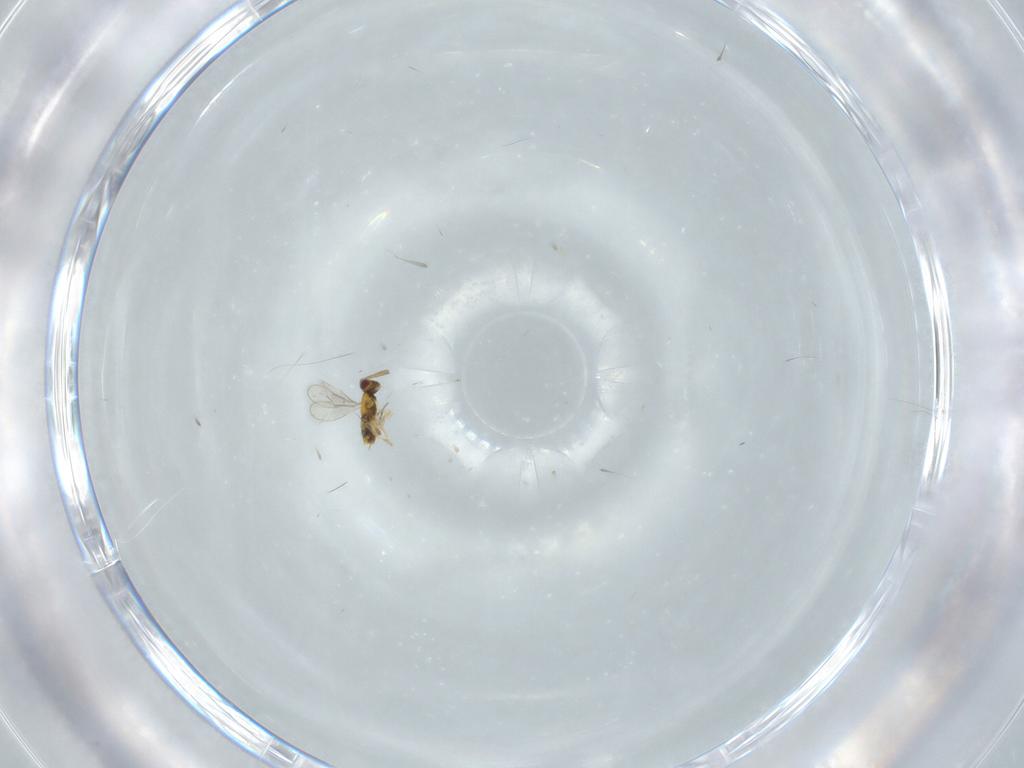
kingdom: Animalia
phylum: Arthropoda
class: Insecta
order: Hymenoptera
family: Aphelinidae
